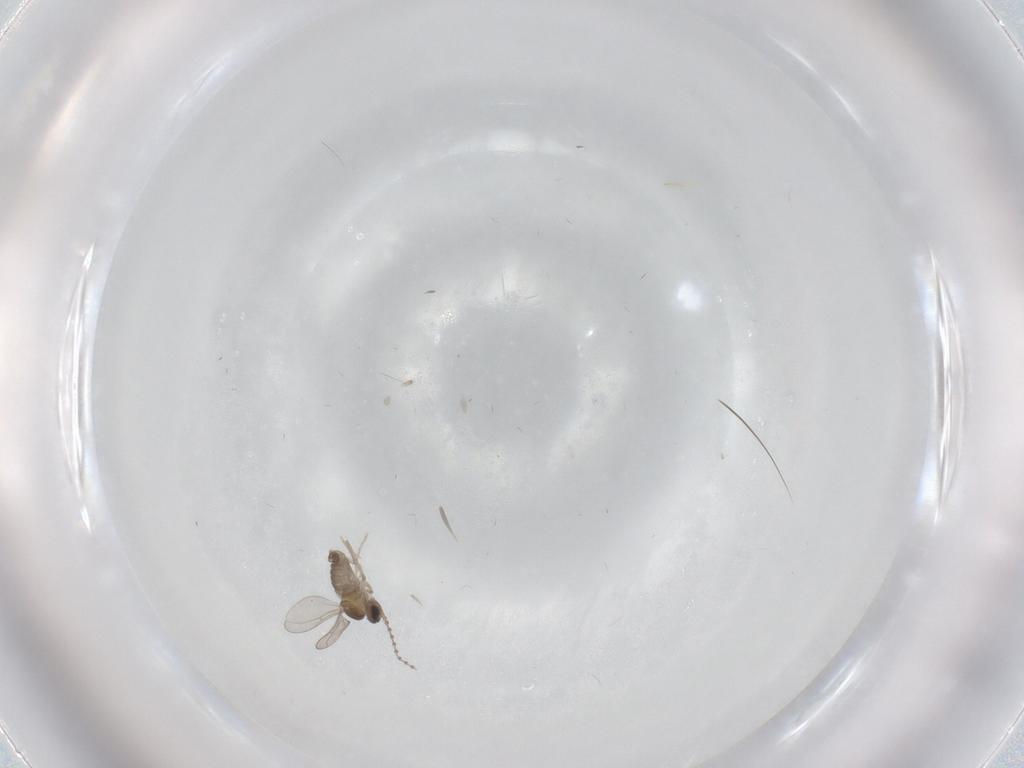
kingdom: Animalia
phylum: Arthropoda
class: Insecta
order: Diptera
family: Cecidomyiidae
